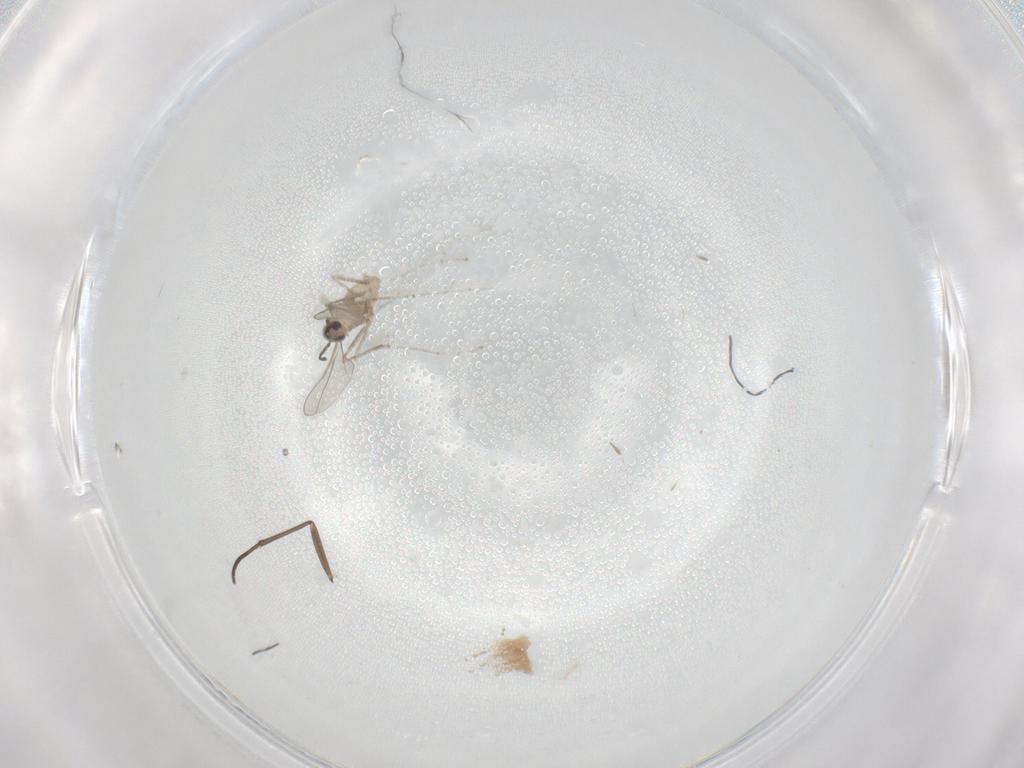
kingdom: Animalia
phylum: Arthropoda
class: Insecta
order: Diptera
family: Cecidomyiidae
